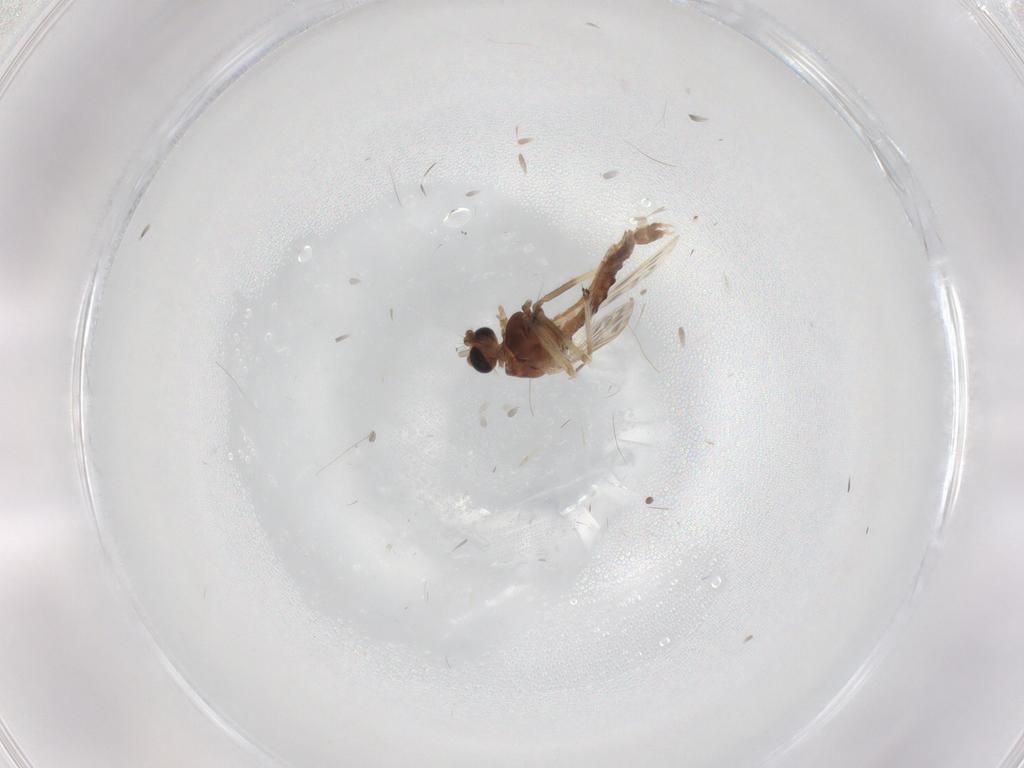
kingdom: Animalia
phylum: Arthropoda
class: Insecta
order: Diptera
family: Chironomidae
